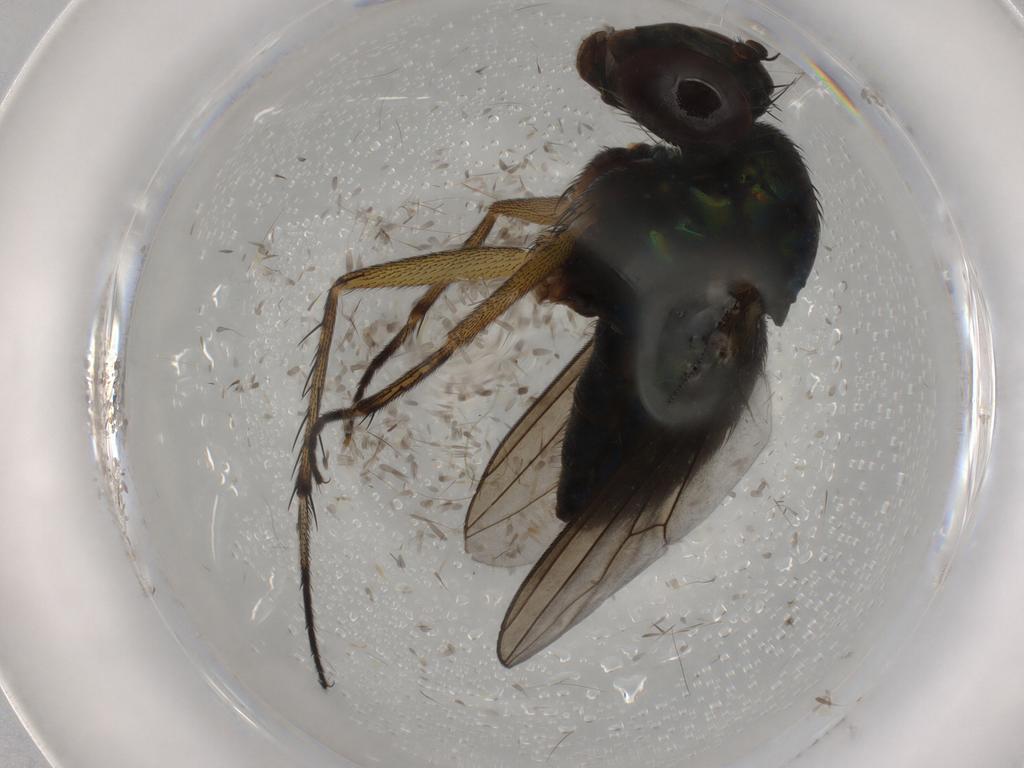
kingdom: Animalia
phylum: Arthropoda
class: Insecta
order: Diptera
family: Dolichopodidae
